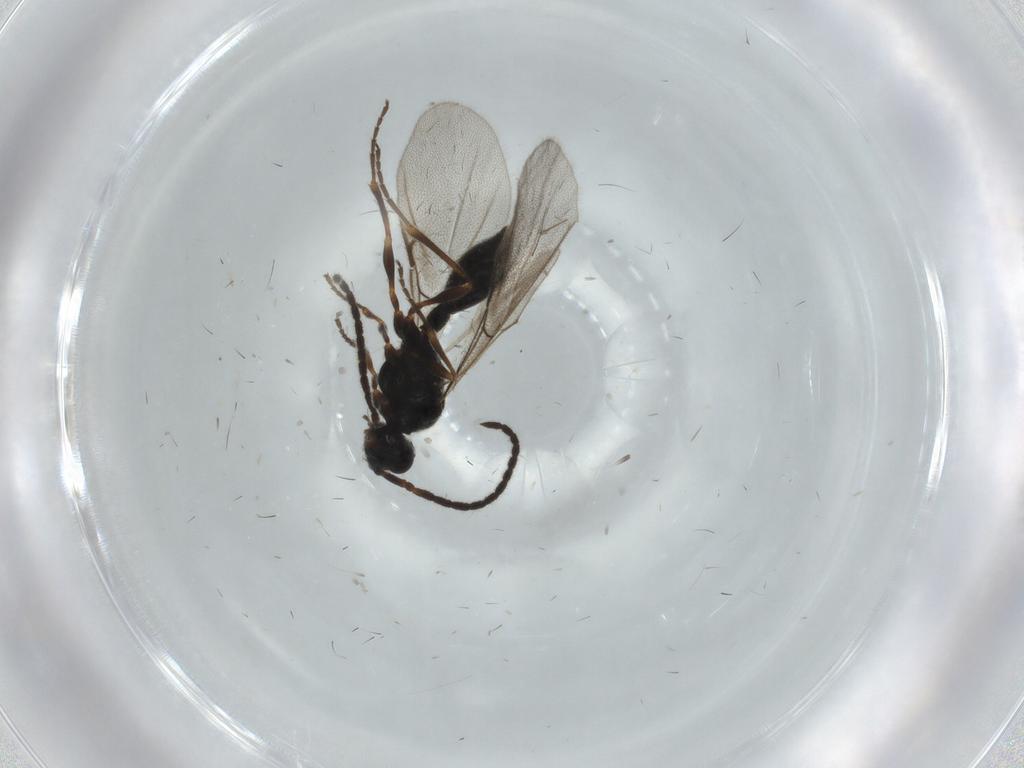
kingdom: Animalia
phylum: Arthropoda
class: Insecta
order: Hymenoptera
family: Diapriidae
